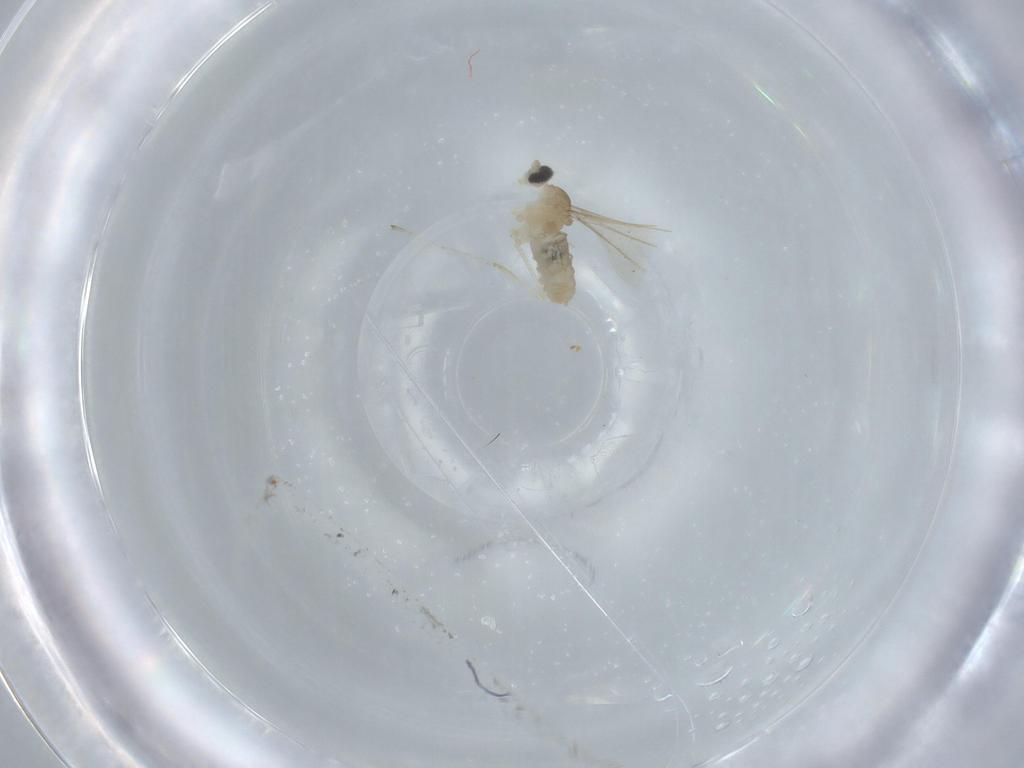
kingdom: Animalia
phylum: Arthropoda
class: Insecta
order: Diptera
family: Cecidomyiidae
